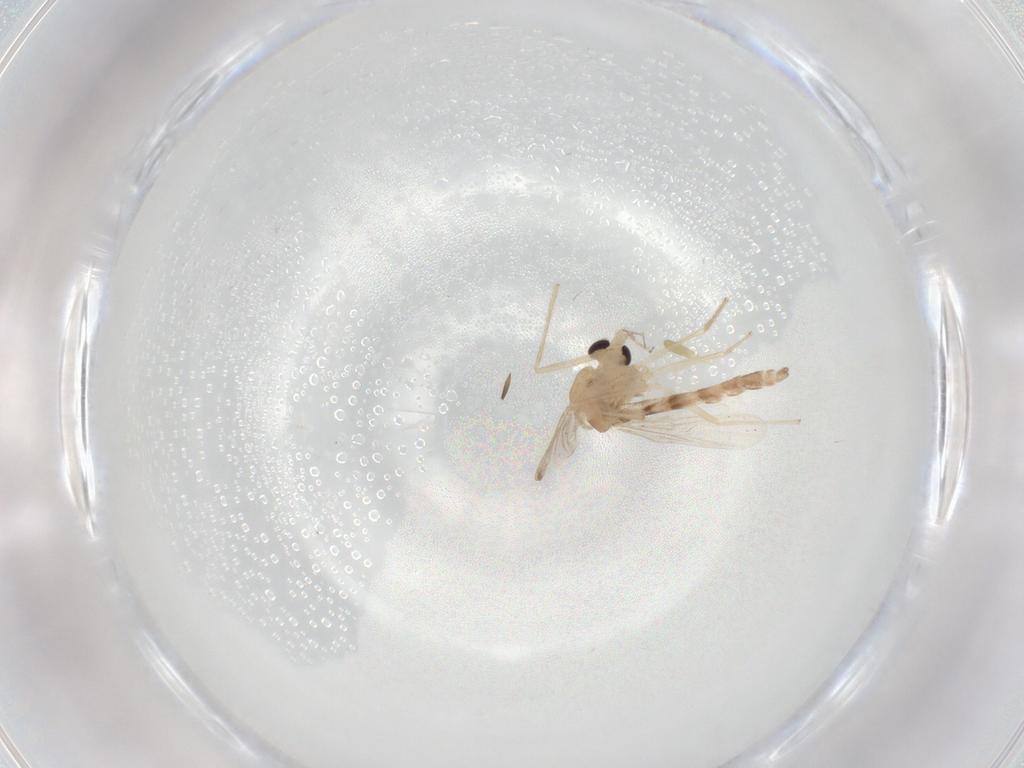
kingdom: Animalia
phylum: Arthropoda
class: Insecta
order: Diptera
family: Chironomidae
